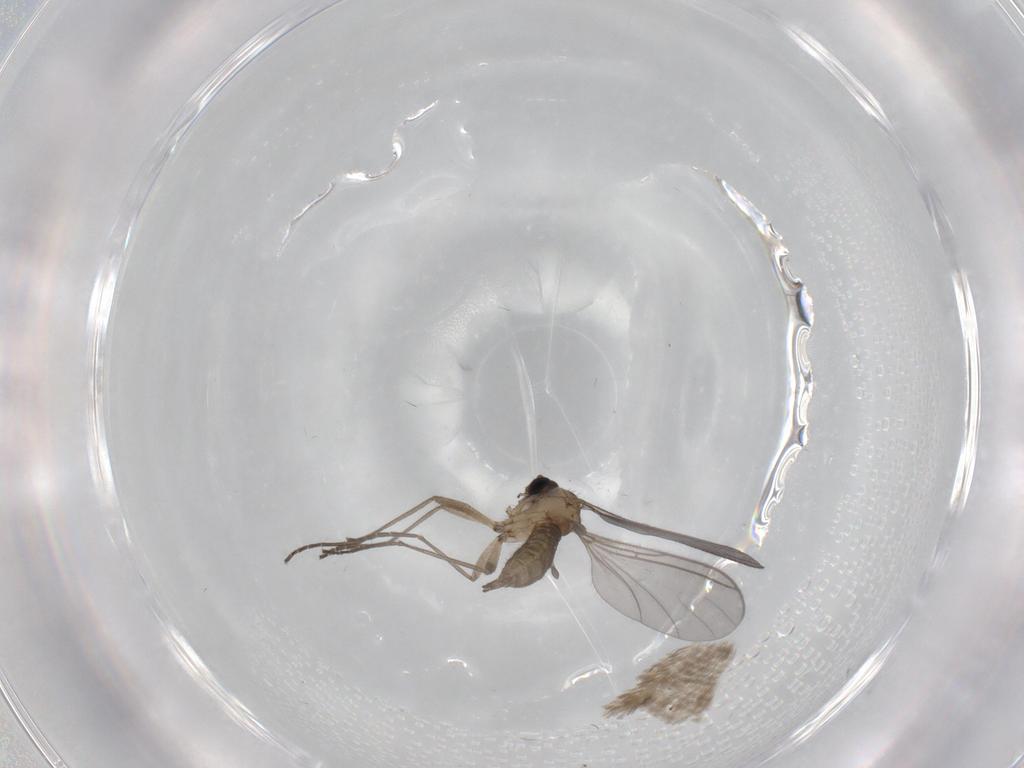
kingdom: Animalia
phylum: Arthropoda
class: Insecta
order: Diptera
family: Sciaridae
